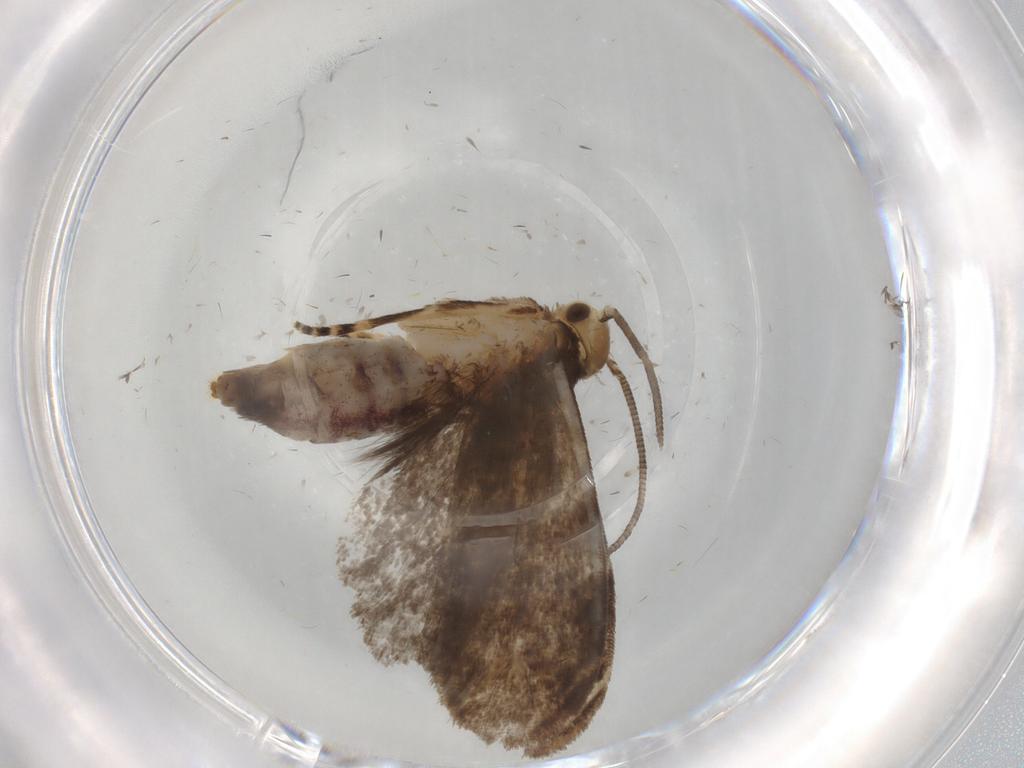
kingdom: Animalia
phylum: Arthropoda
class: Insecta
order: Lepidoptera
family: Dryadaulidae
